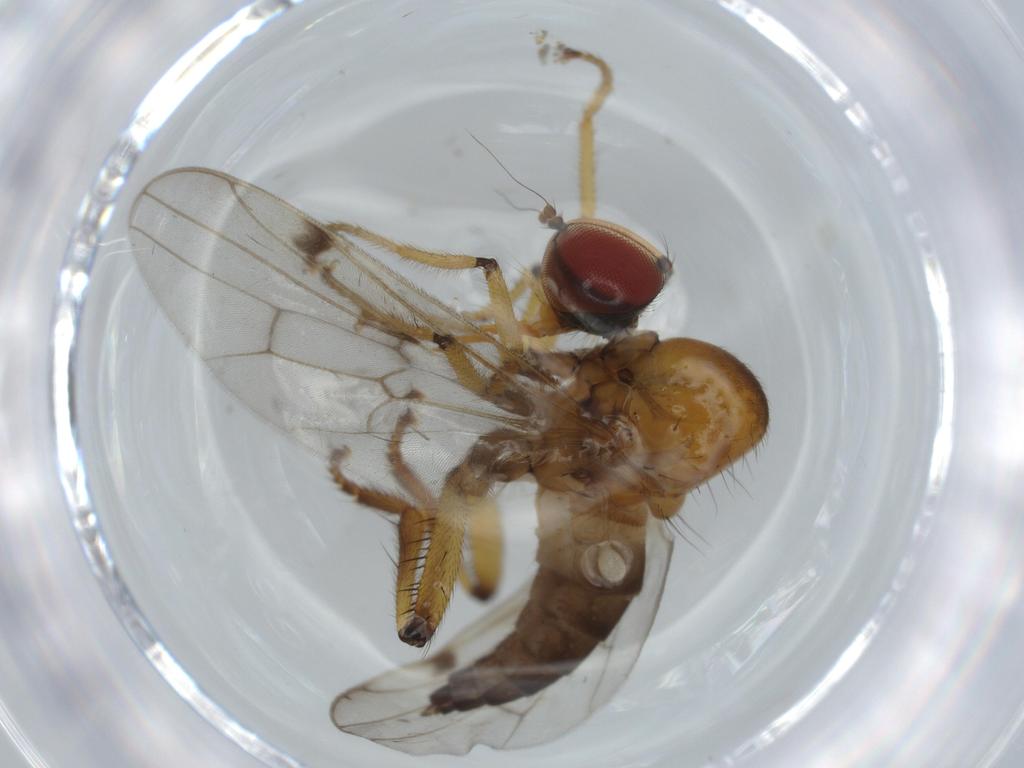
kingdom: Animalia
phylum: Arthropoda
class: Insecta
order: Diptera
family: Hybotidae
